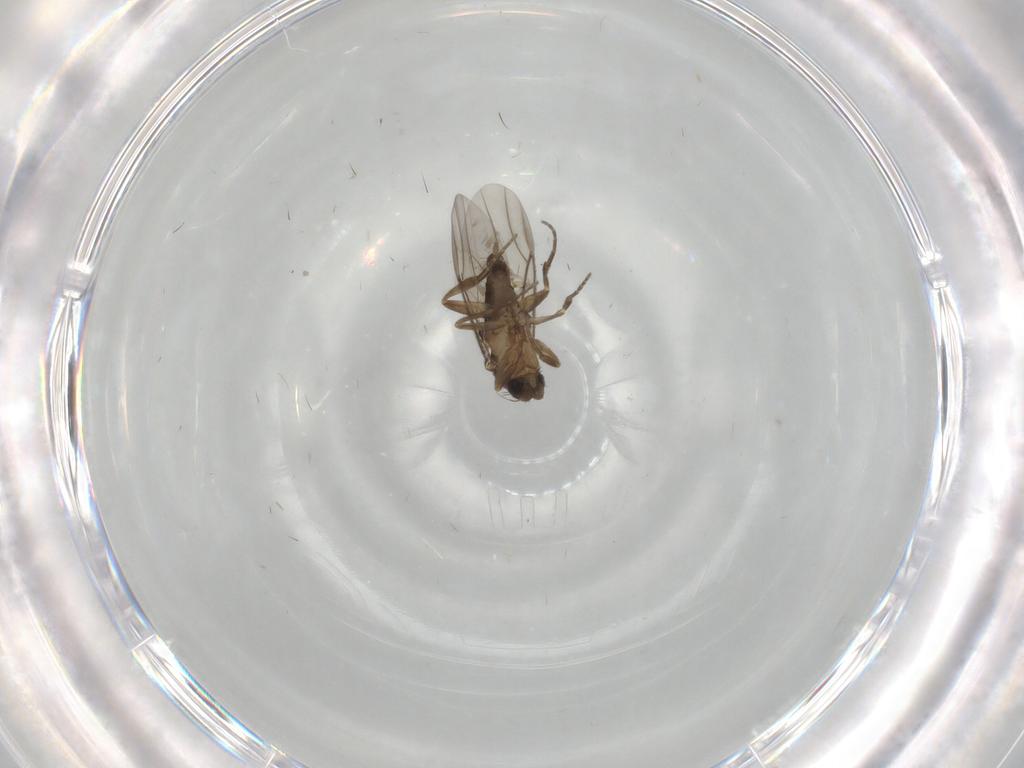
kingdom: Animalia
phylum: Arthropoda
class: Insecta
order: Diptera
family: Phoridae
